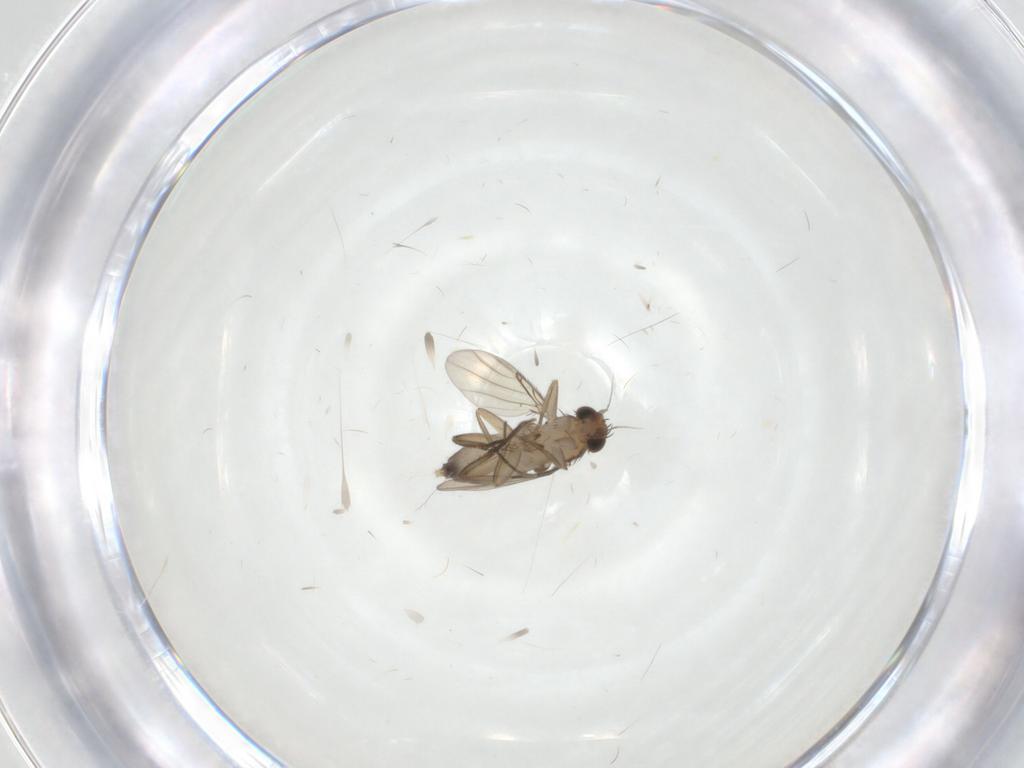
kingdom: Animalia
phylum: Arthropoda
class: Insecta
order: Diptera
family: Phoridae
